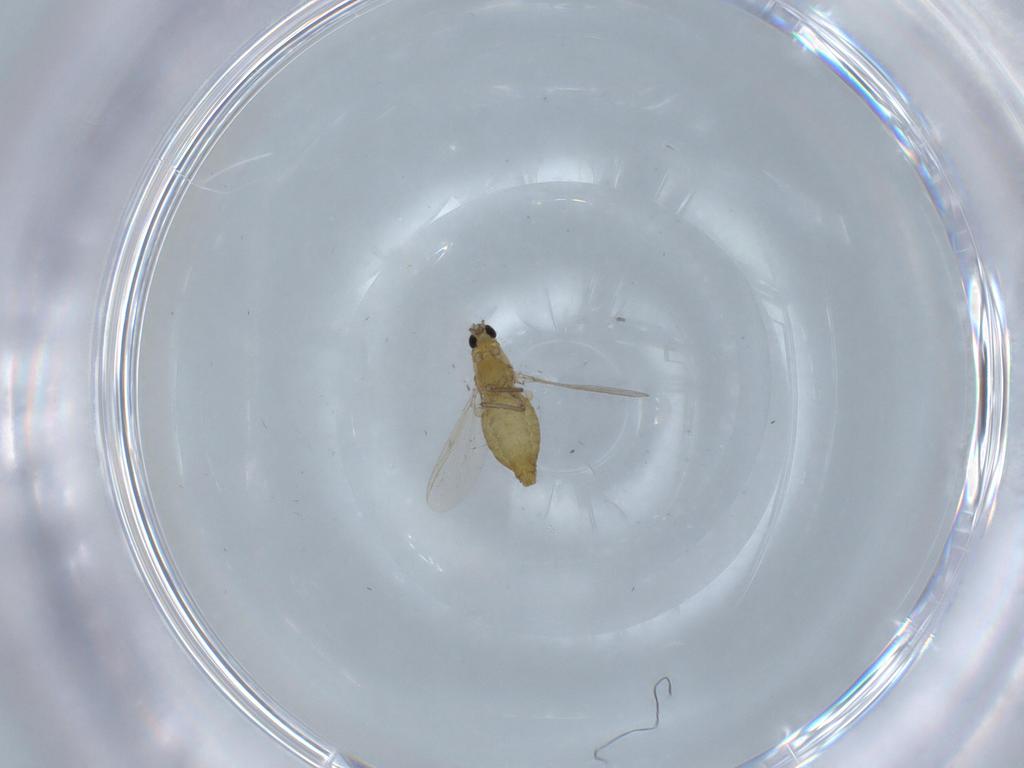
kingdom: Animalia
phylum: Arthropoda
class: Insecta
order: Diptera
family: Chironomidae
